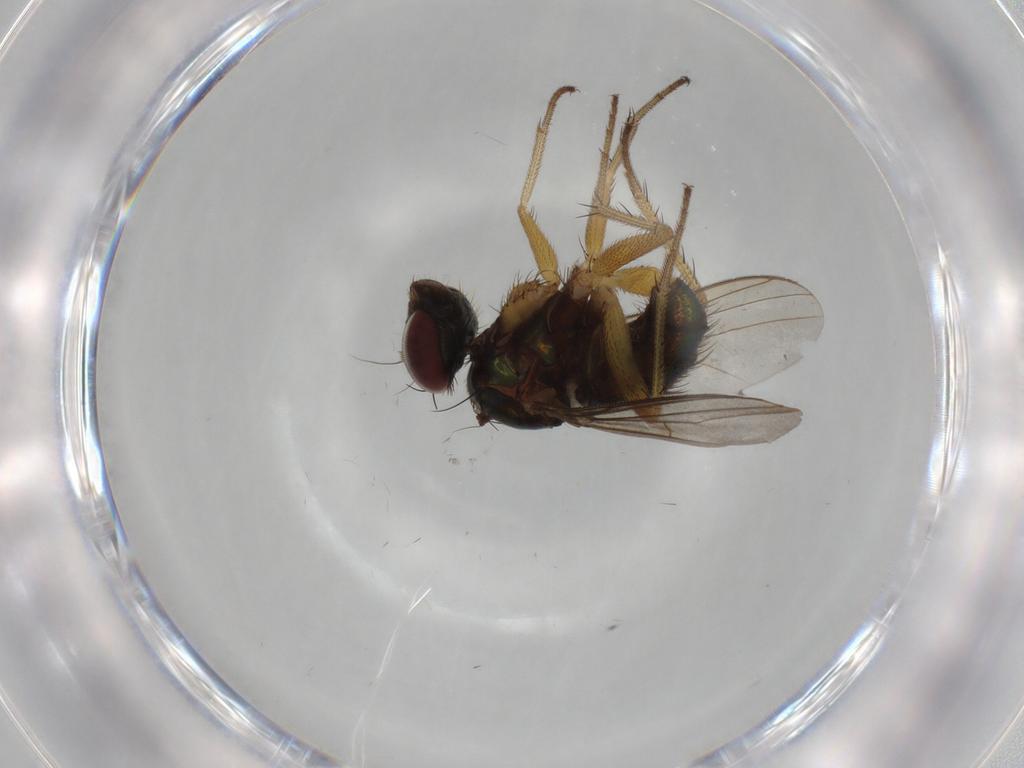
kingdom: Animalia
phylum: Arthropoda
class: Insecta
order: Diptera
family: Dolichopodidae
